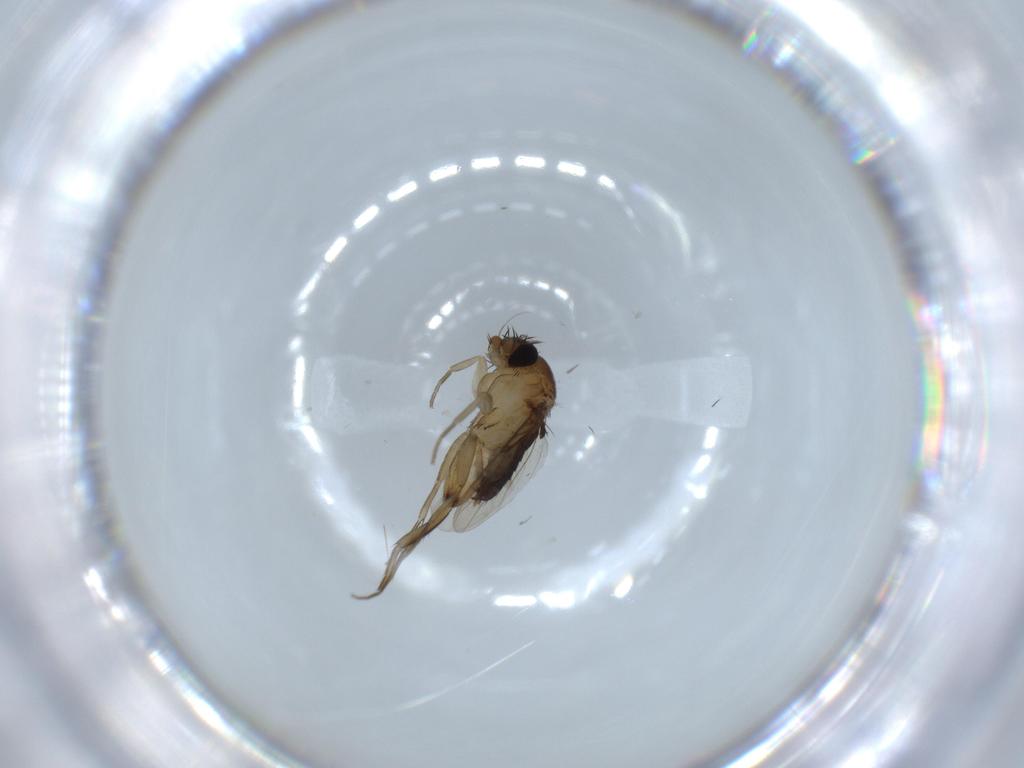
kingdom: Animalia
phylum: Arthropoda
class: Insecta
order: Diptera
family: Phoridae
